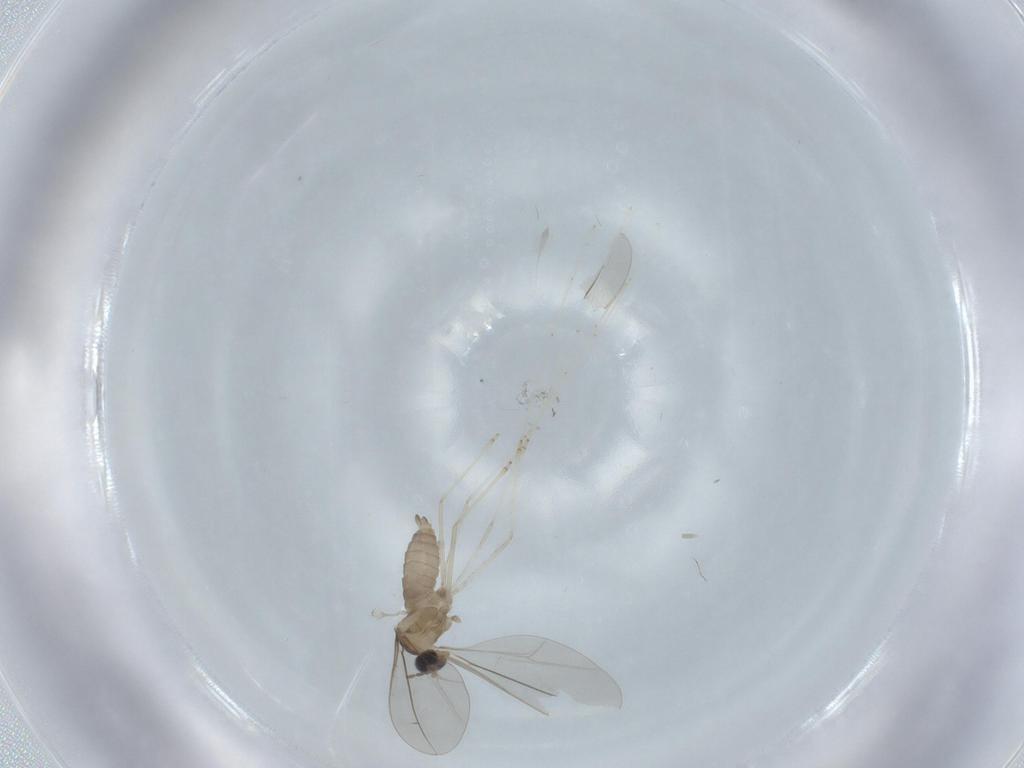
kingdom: Animalia
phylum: Arthropoda
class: Insecta
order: Diptera
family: Cecidomyiidae
